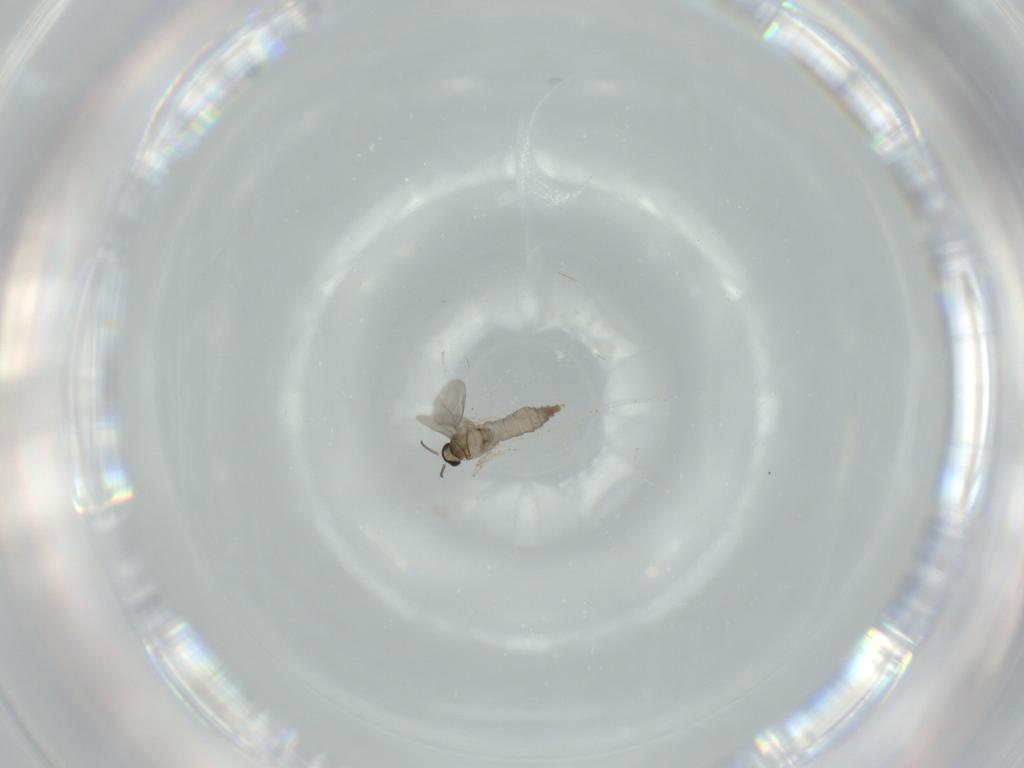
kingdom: Animalia
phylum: Arthropoda
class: Insecta
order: Diptera
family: Cecidomyiidae
